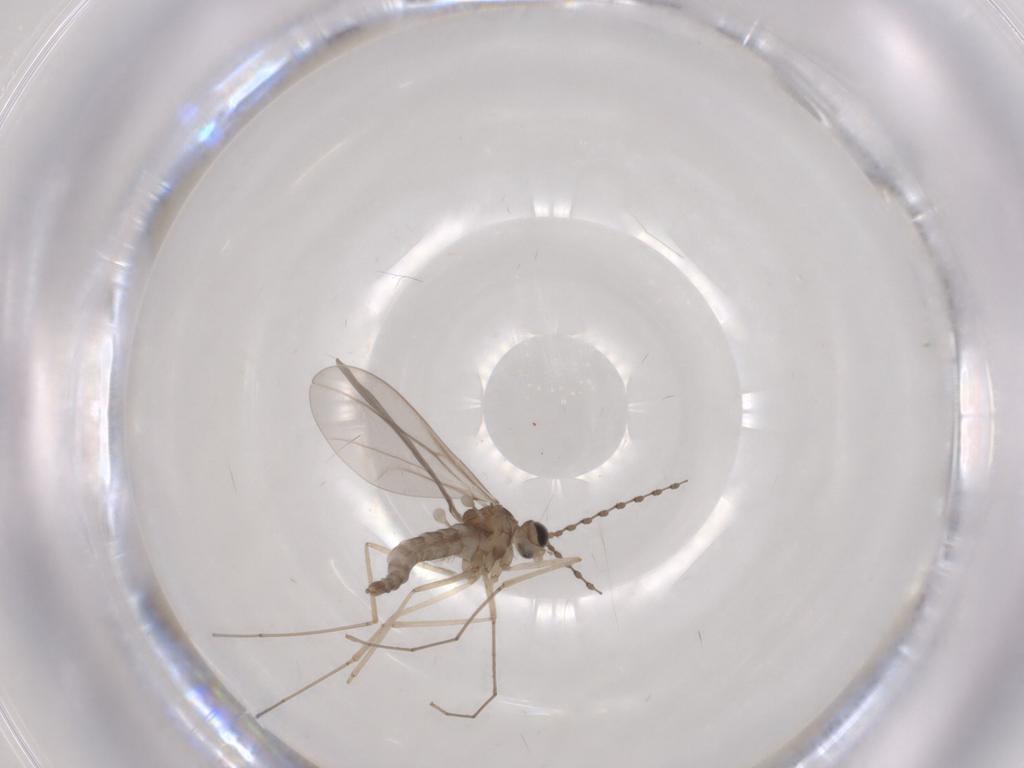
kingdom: Animalia
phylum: Arthropoda
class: Insecta
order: Diptera
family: Cecidomyiidae
